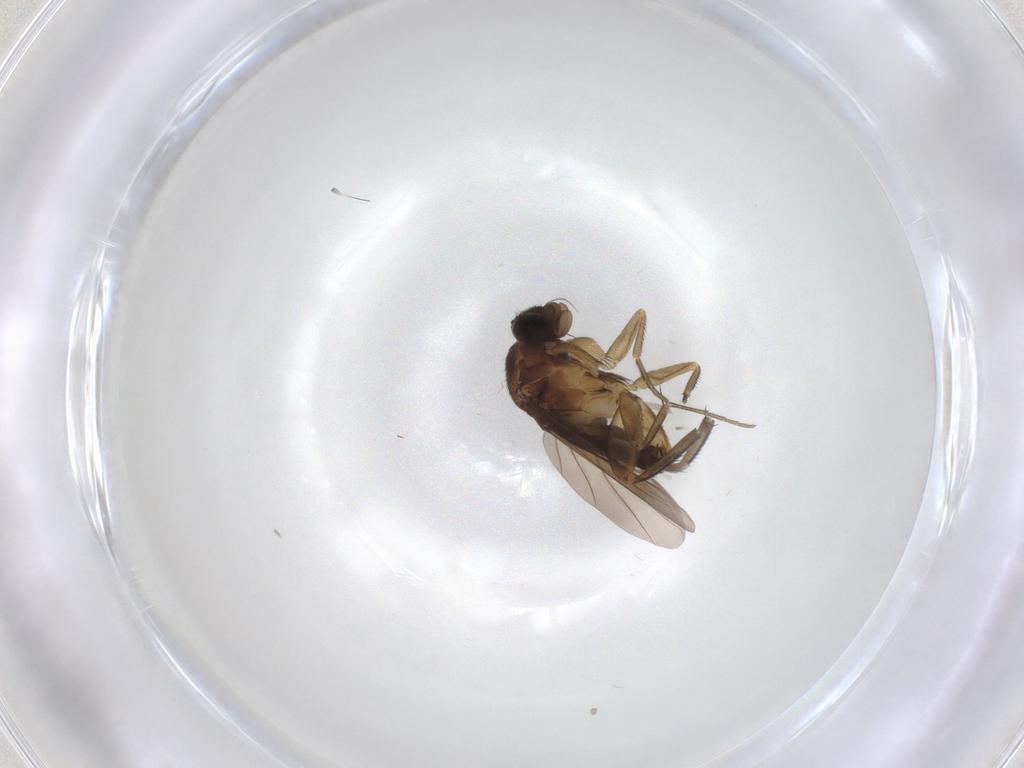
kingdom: Animalia
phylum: Arthropoda
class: Insecta
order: Diptera
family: Phoridae
